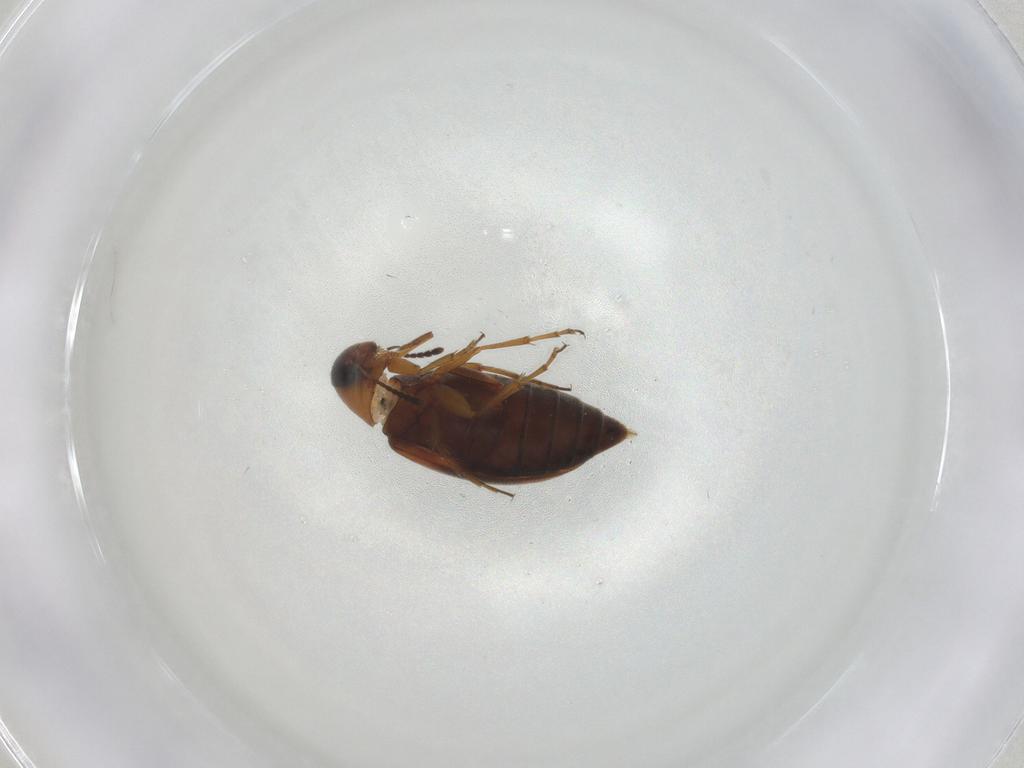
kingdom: Animalia
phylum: Arthropoda
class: Insecta
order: Coleoptera
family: Scraptiidae
